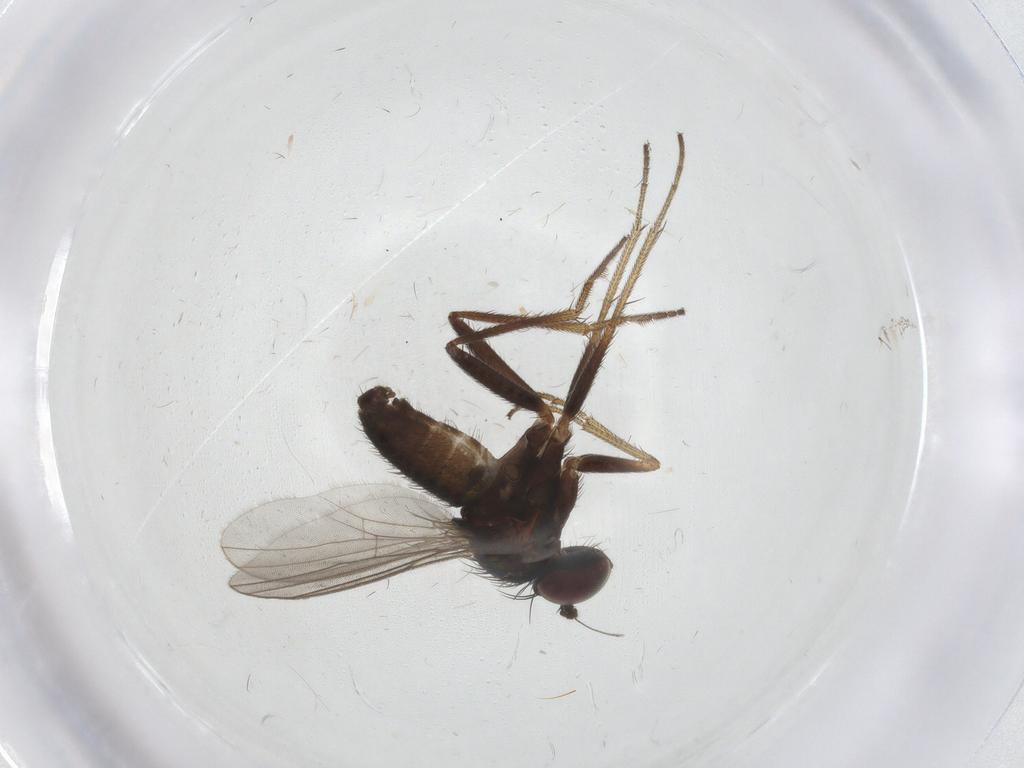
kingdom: Animalia
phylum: Arthropoda
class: Insecta
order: Diptera
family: Dolichopodidae
